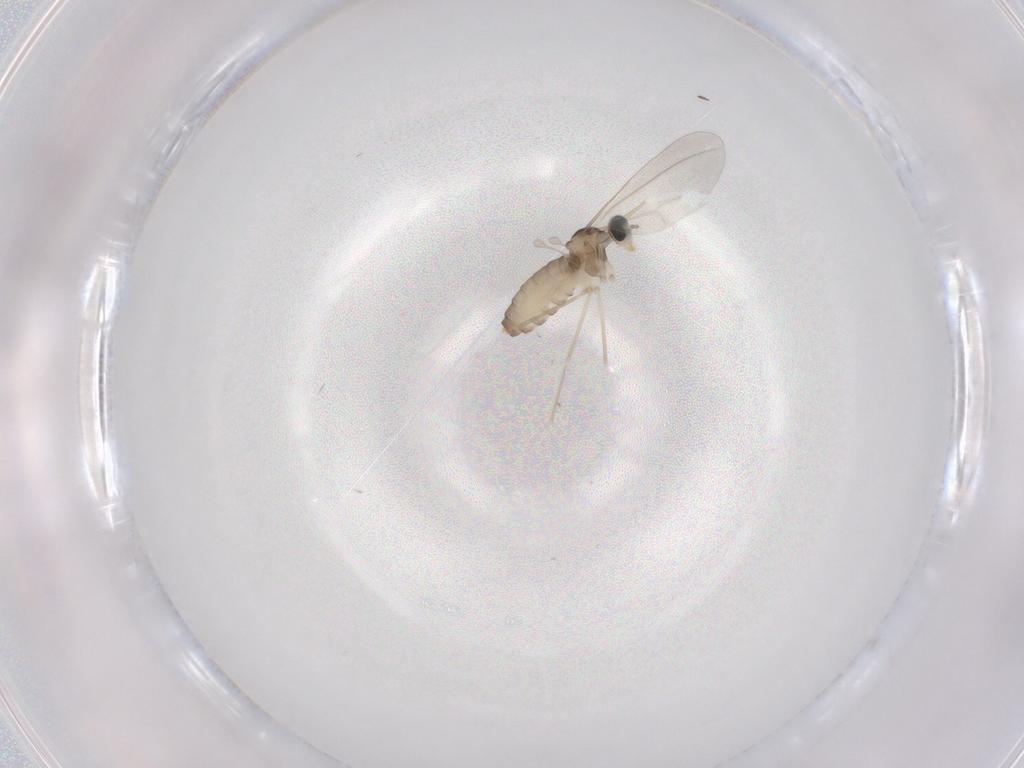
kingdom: Animalia
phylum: Arthropoda
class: Insecta
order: Diptera
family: Cecidomyiidae
